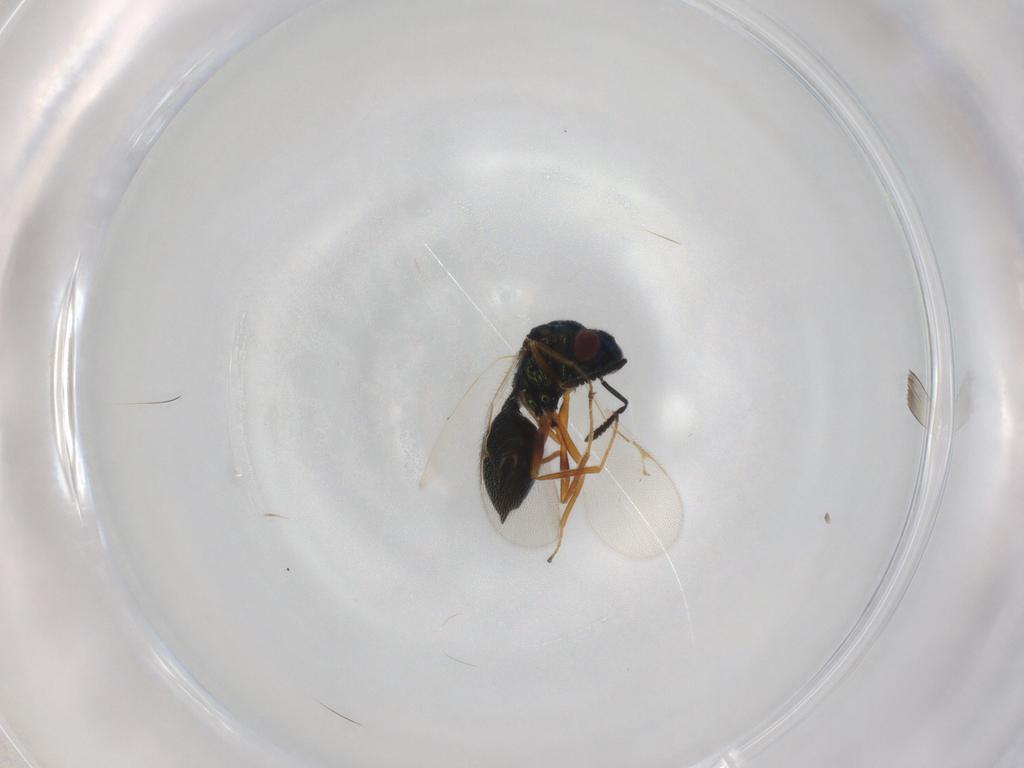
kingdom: Animalia
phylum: Arthropoda
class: Insecta
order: Hymenoptera
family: Chalcidoidea_incertae_sedis
